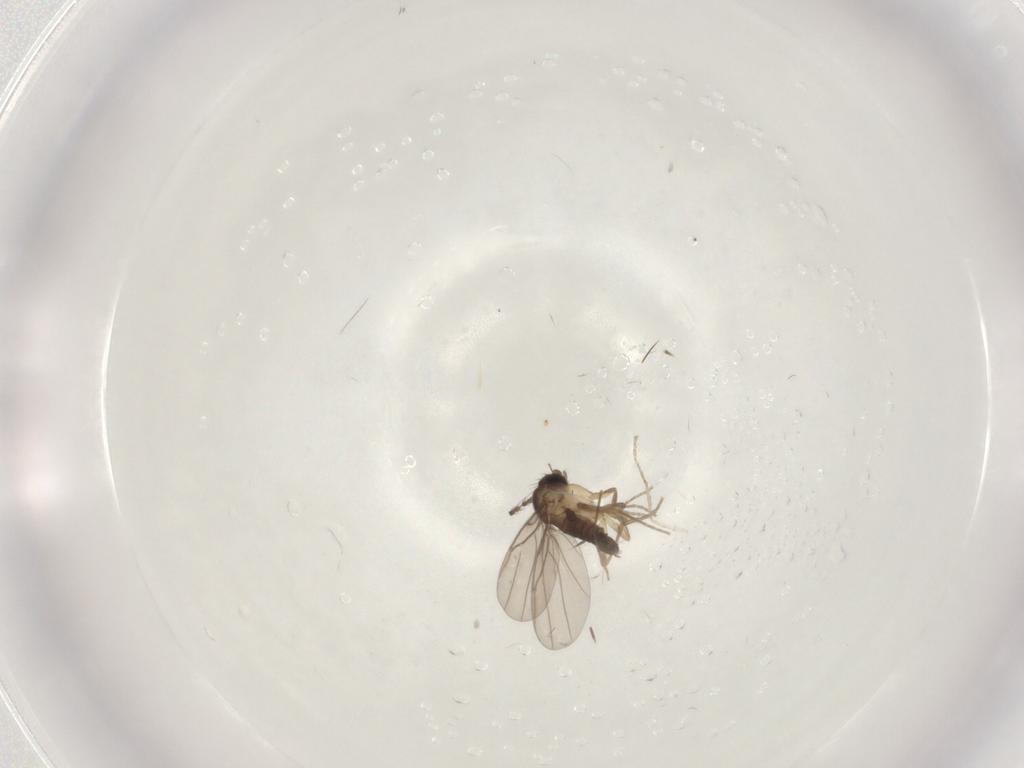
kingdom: Animalia
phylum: Arthropoda
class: Insecta
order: Diptera
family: Phoridae
